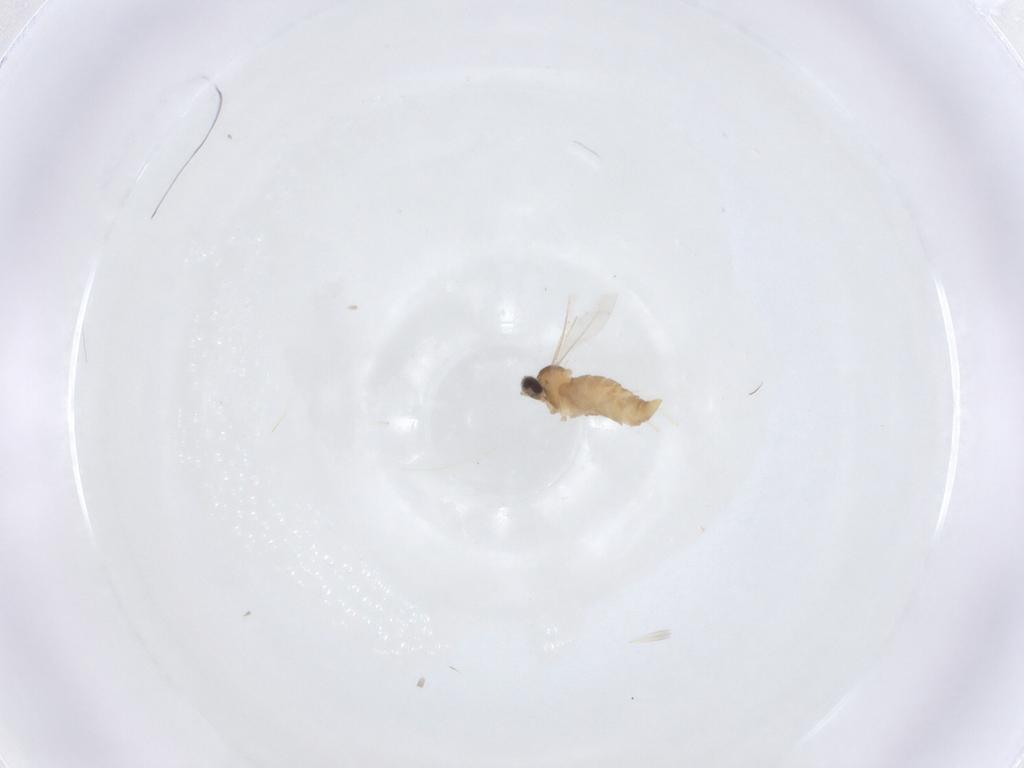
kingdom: Animalia
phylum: Arthropoda
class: Insecta
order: Diptera
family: Cecidomyiidae
